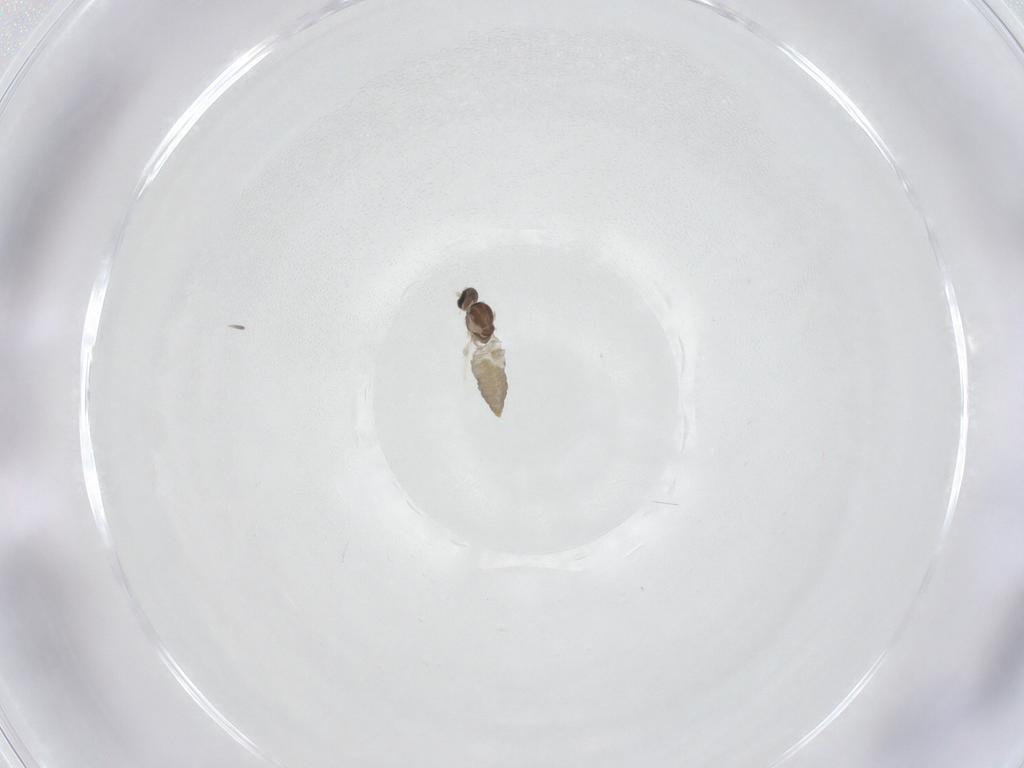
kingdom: Animalia
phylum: Arthropoda
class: Insecta
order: Diptera
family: Cecidomyiidae
